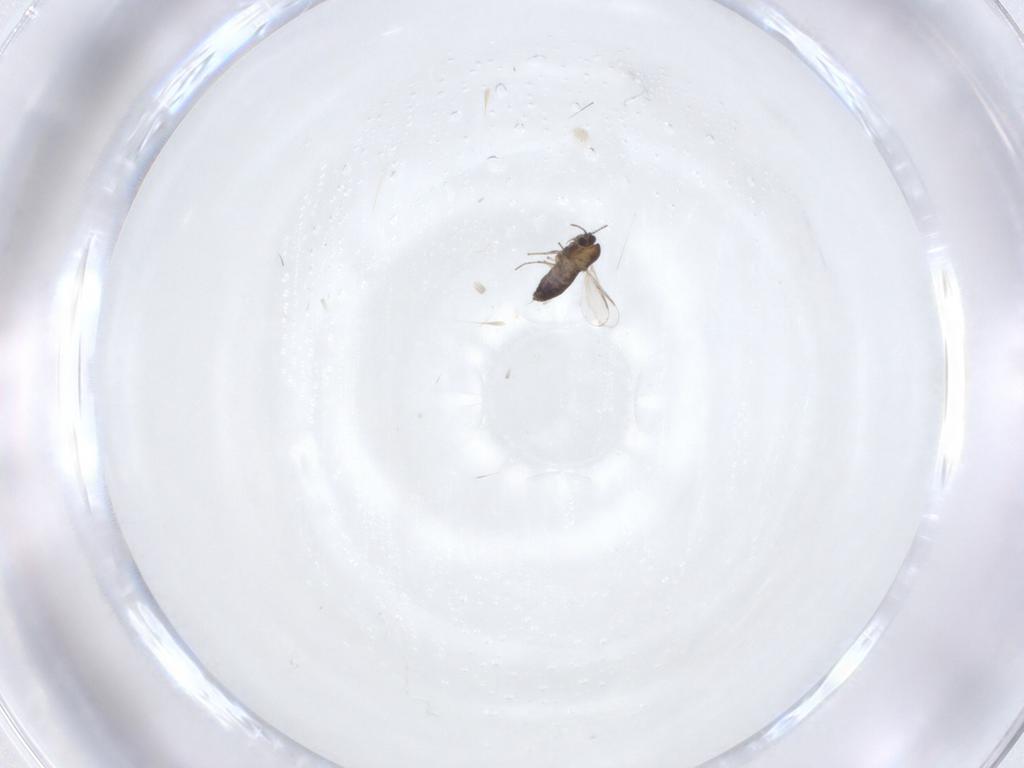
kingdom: Animalia
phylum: Arthropoda
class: Insecta
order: Diptera
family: Chironomidae
